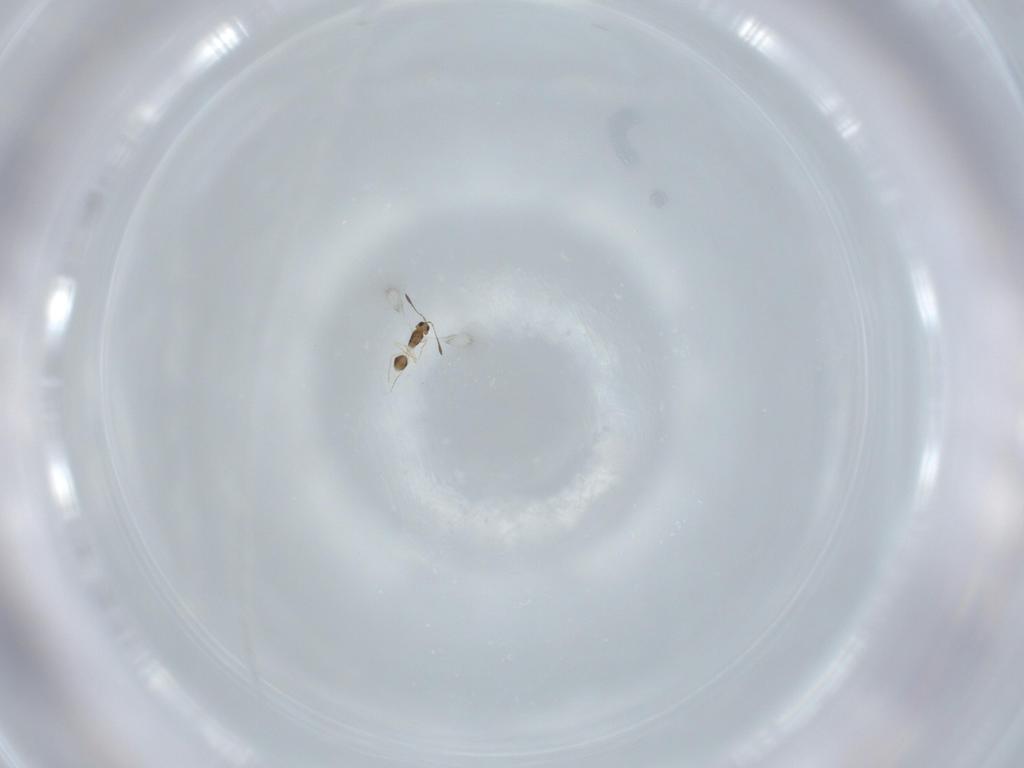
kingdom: Animalia
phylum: Arthropoda
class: Insecta
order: Hymenoptera
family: Mymarommatidae
